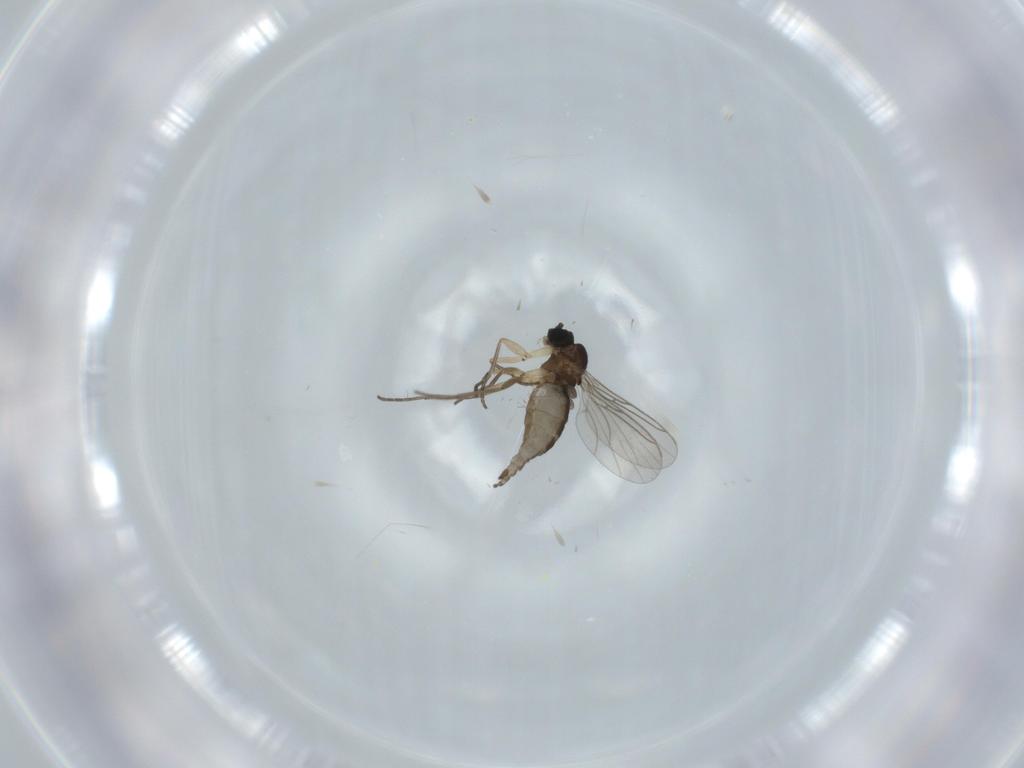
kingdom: Animalia
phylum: Arthropoda
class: Insecta
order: Diptera
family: Sciaridae
